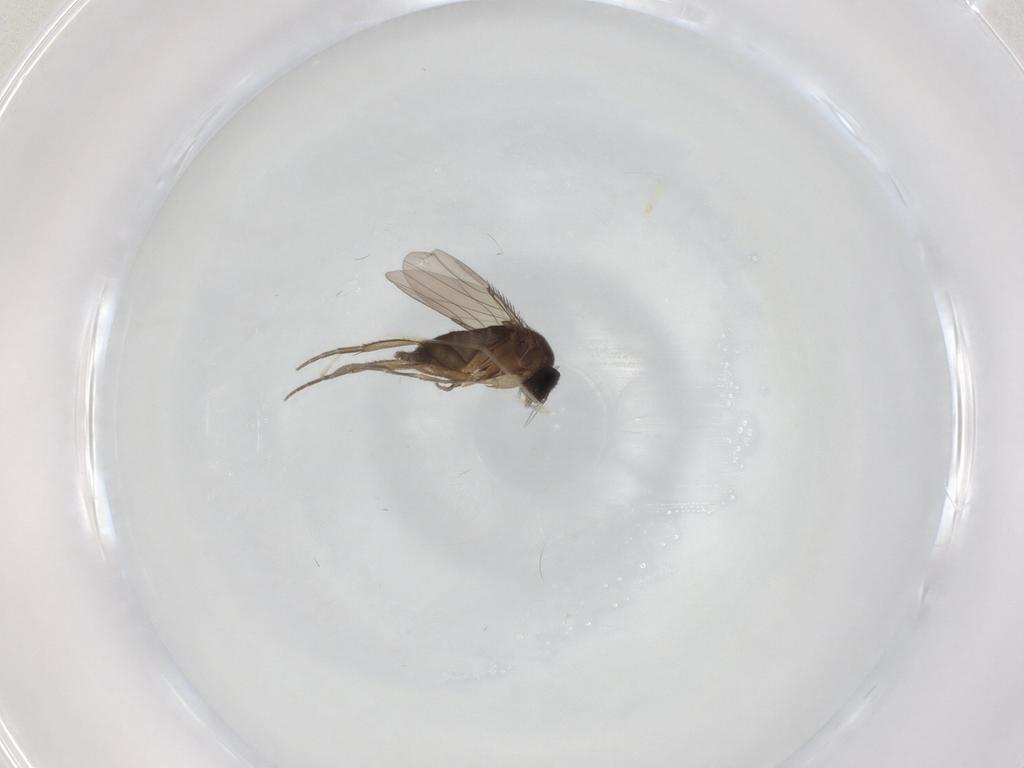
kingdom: Animalia
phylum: Arthropoda
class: Insecta
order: Diptera
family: Phoridae
